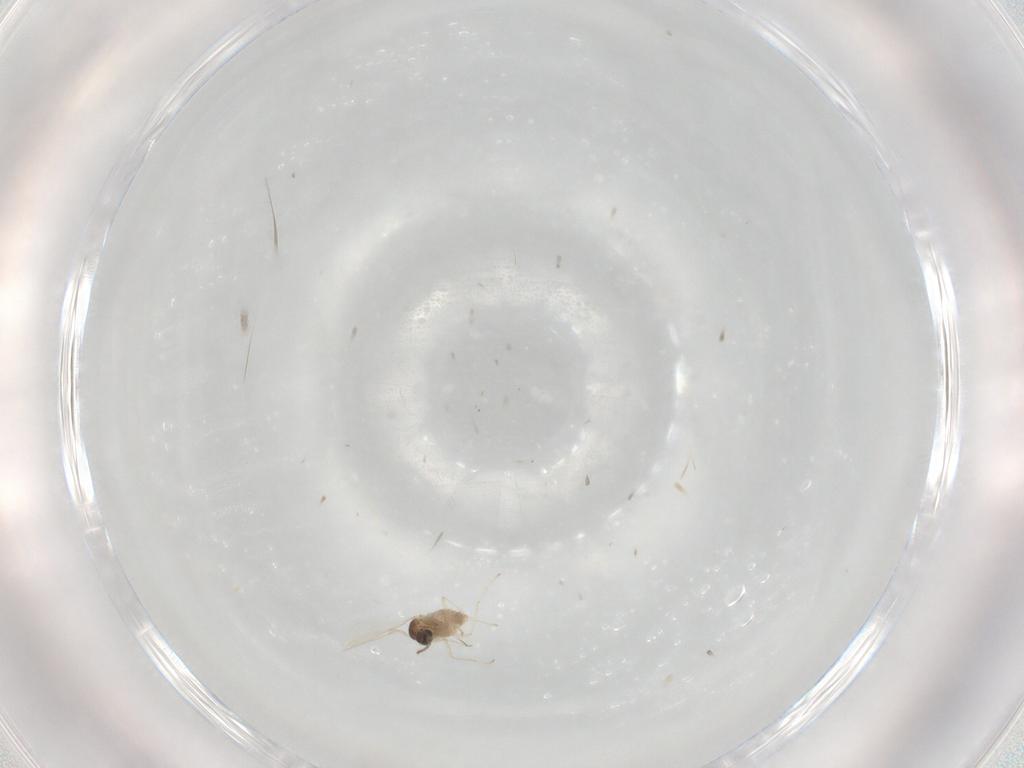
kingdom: Animalia
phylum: Arthropoda
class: Insecta
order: Diptera
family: Cecidomyiidae
